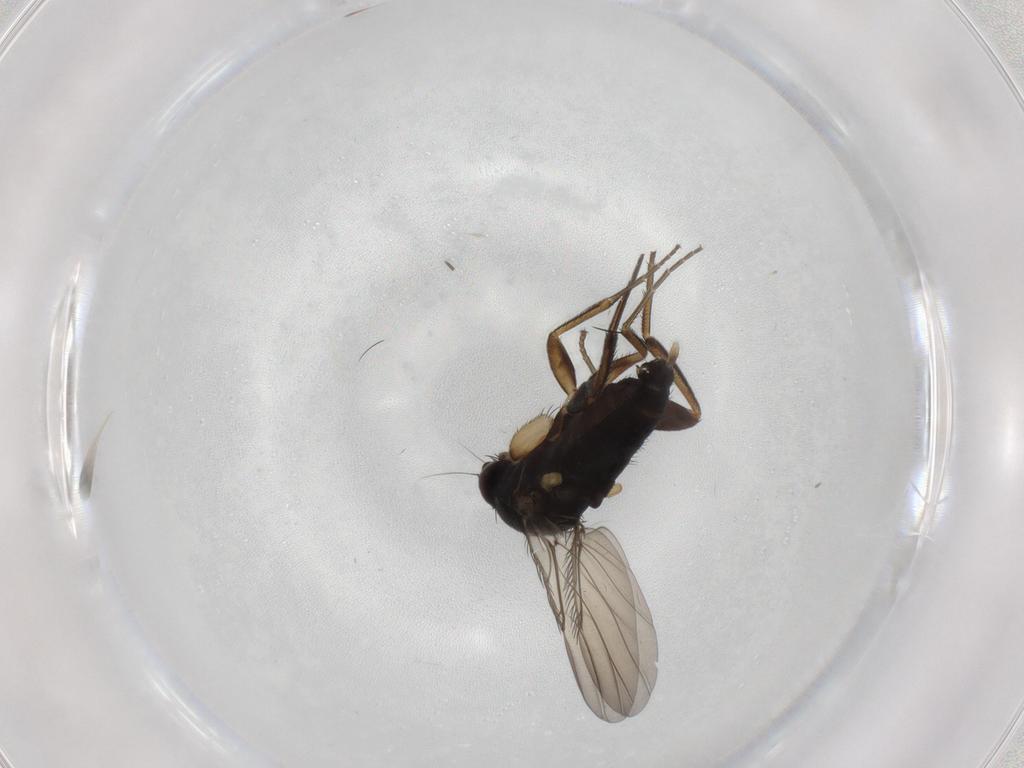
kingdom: Animalia
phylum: Arthropoda
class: Insecta
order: Diptera
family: Phoridae
